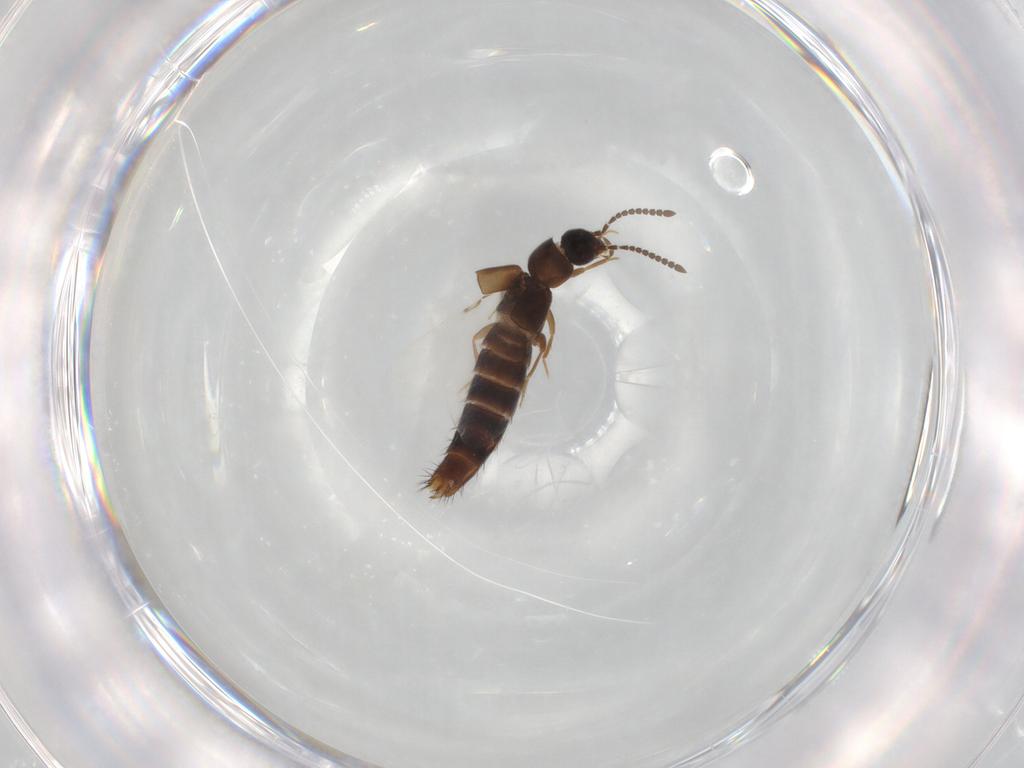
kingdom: Animalia
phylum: Arthropoda
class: Insecta
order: Coleoptera
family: Staphylinidae
